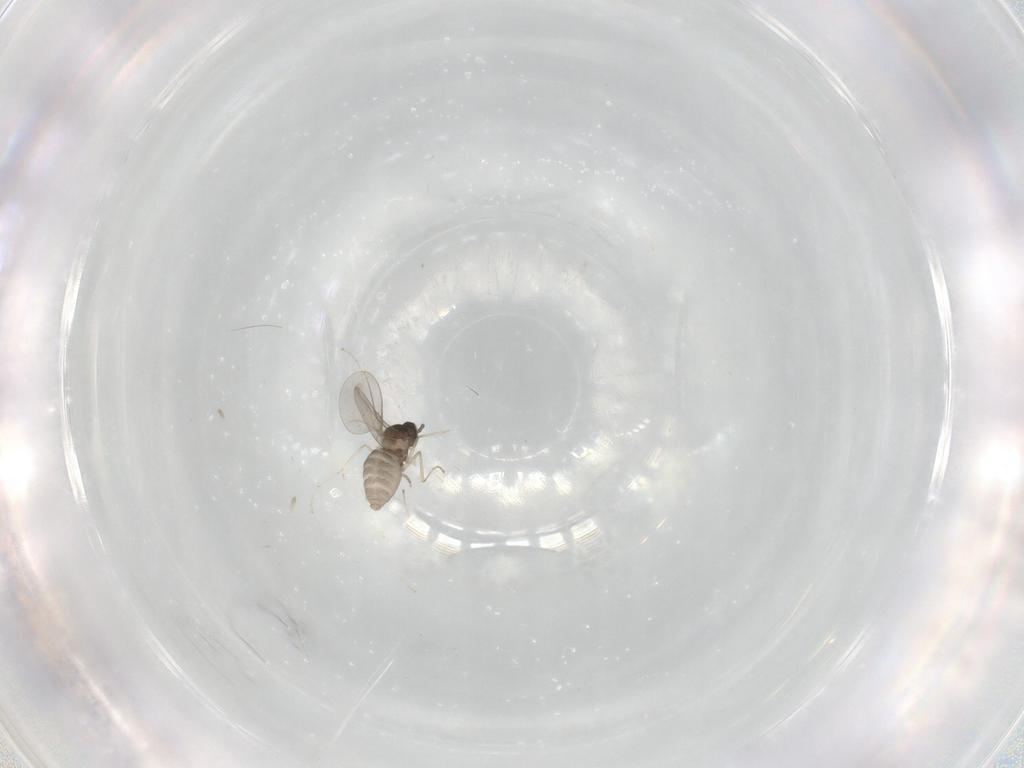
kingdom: Animalia
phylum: Arthropoda
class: Insecta
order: Diptera
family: Cecidomyiidae
